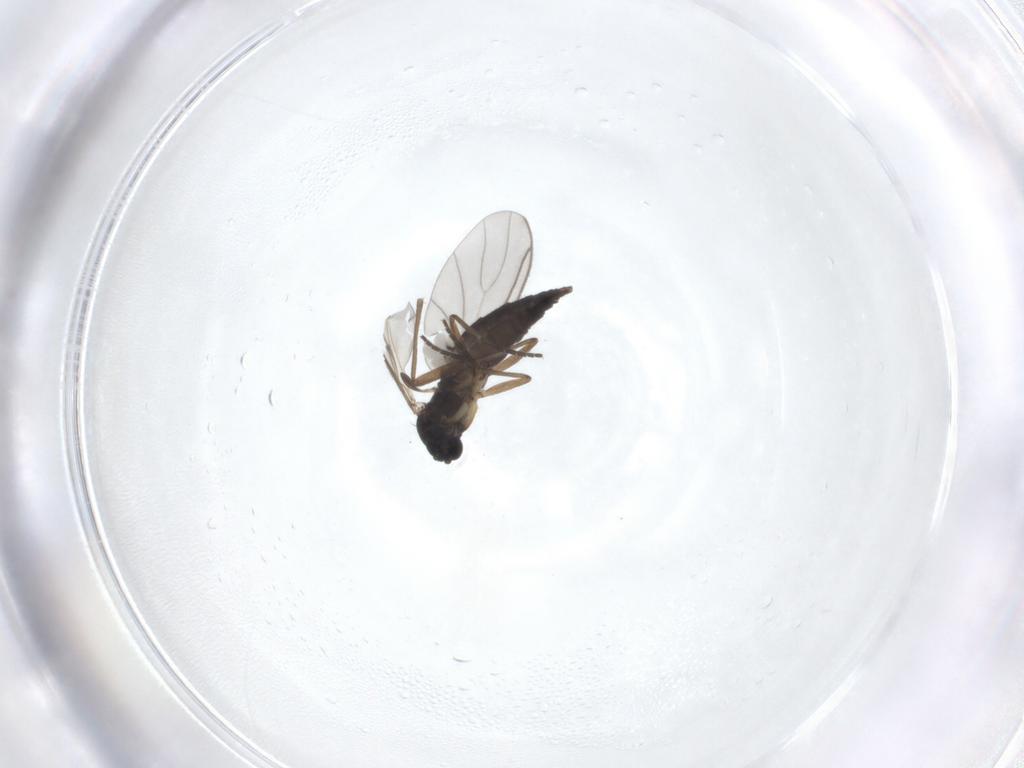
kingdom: Animalia
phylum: Arthropoda
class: Insecta
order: Diptera
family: Sciaridae
